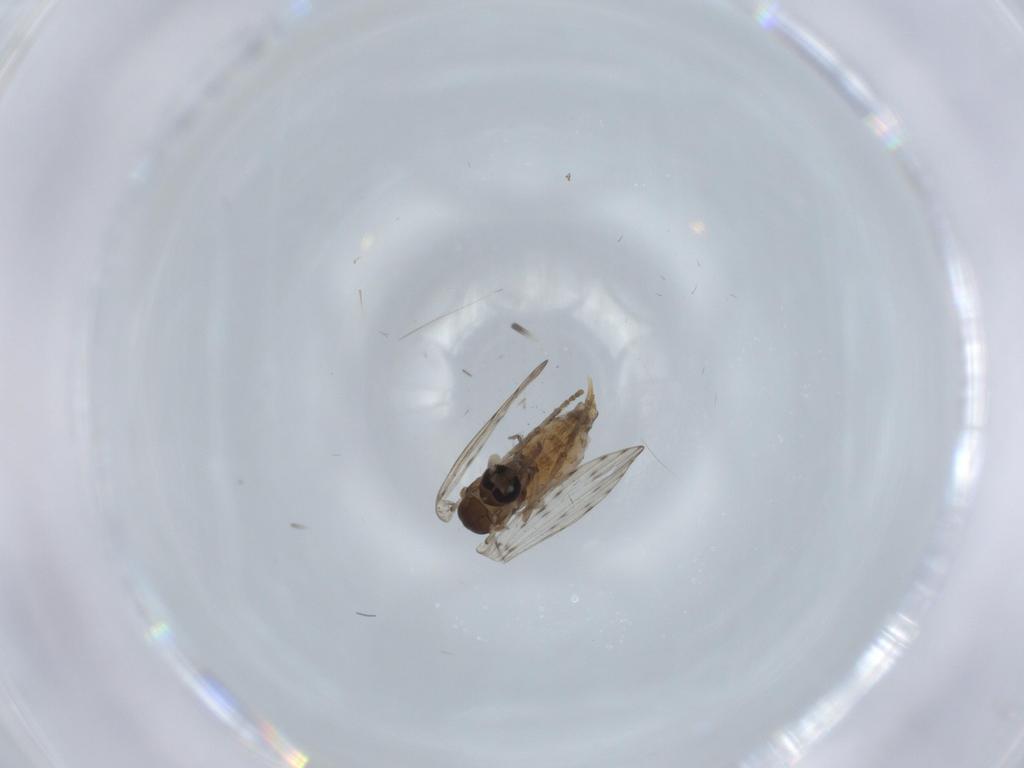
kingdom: Animalia
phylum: Arthropoda
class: Insecta
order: Diptera
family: Psychodidae
